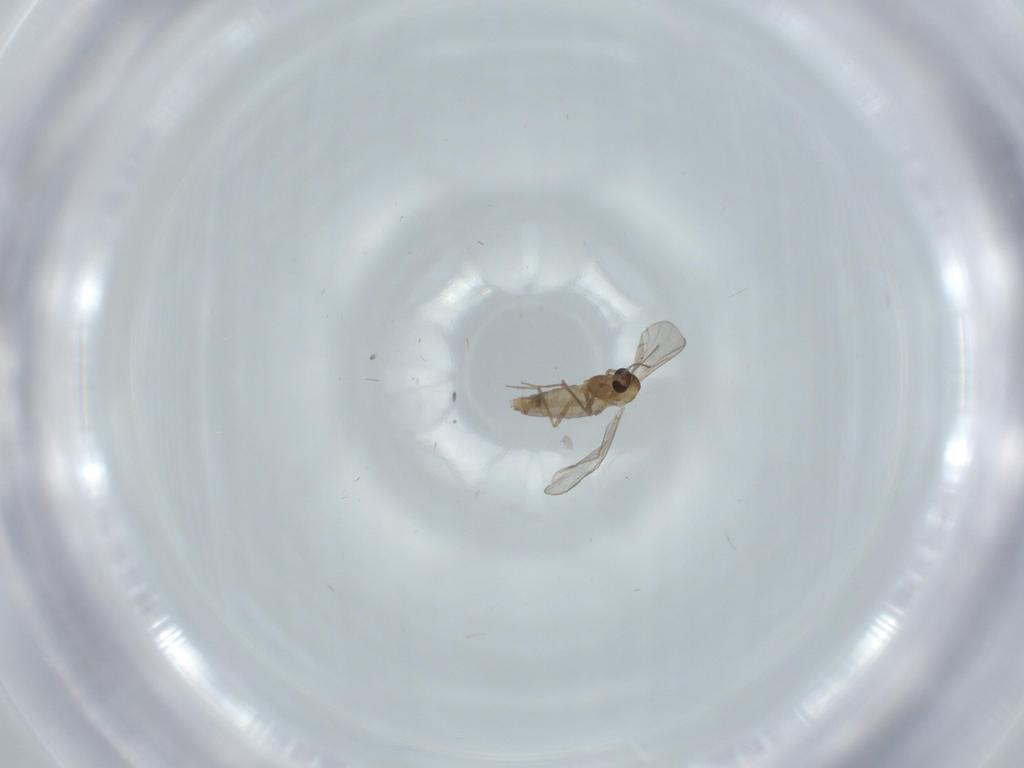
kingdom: Animalia
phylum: Arthropoda
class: Insecta
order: Diptera
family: Chironomidae
